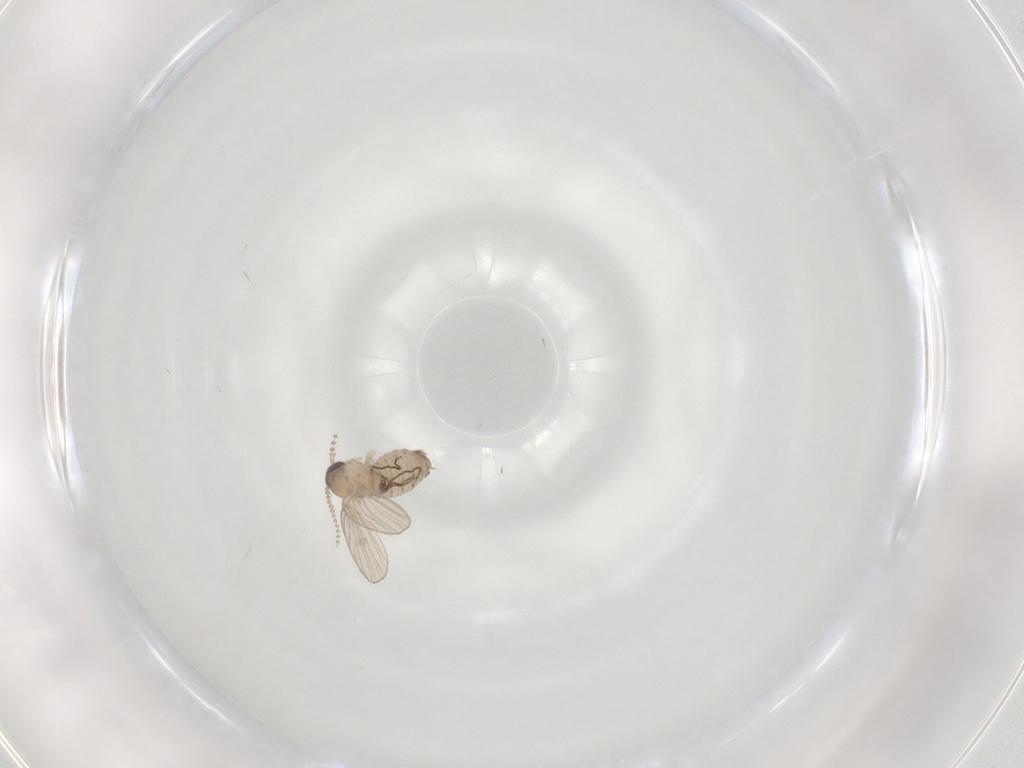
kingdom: Animalia
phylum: Arthropoda
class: Insecta
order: Diptera
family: Psychodidae
